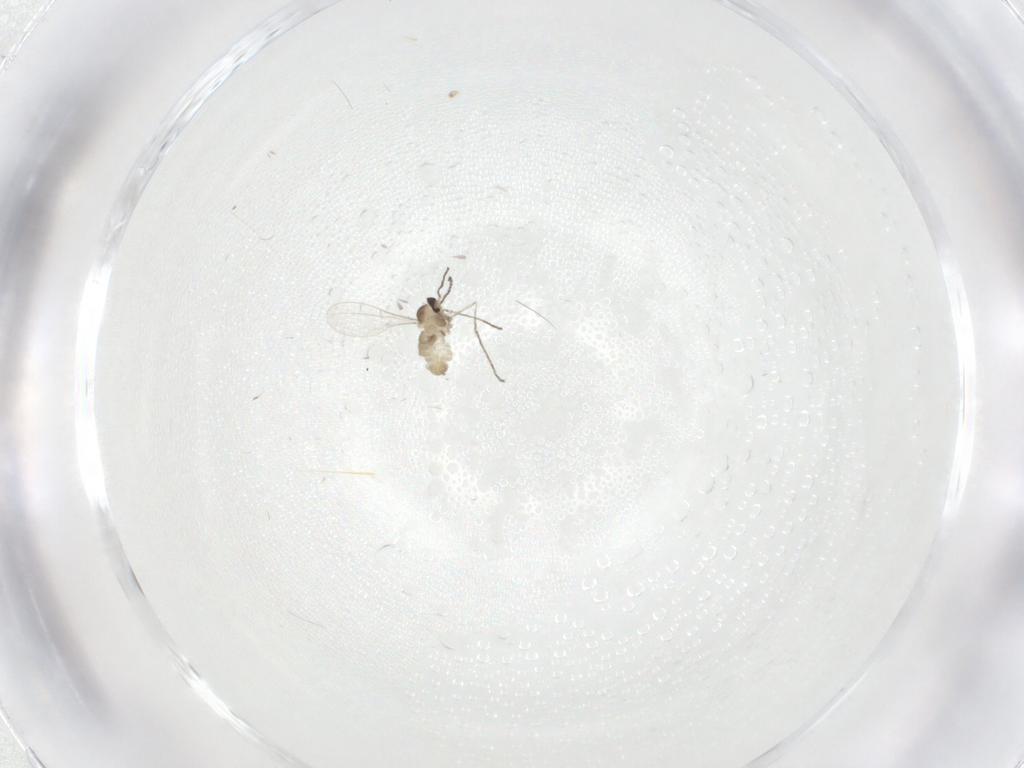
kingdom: Animalia
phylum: Arthropoda
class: Insecta
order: Diptera
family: Cecidomyiidae
